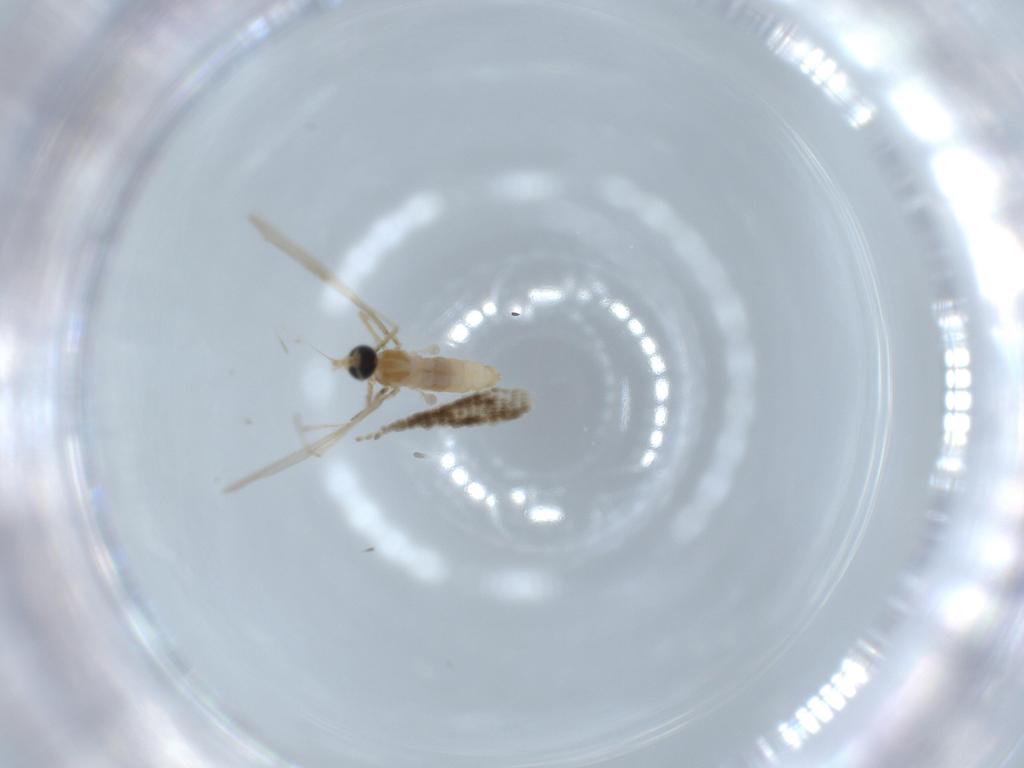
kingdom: Animalia
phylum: Arthropoda
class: Insecta
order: Diptera
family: Cecidomyiidae
